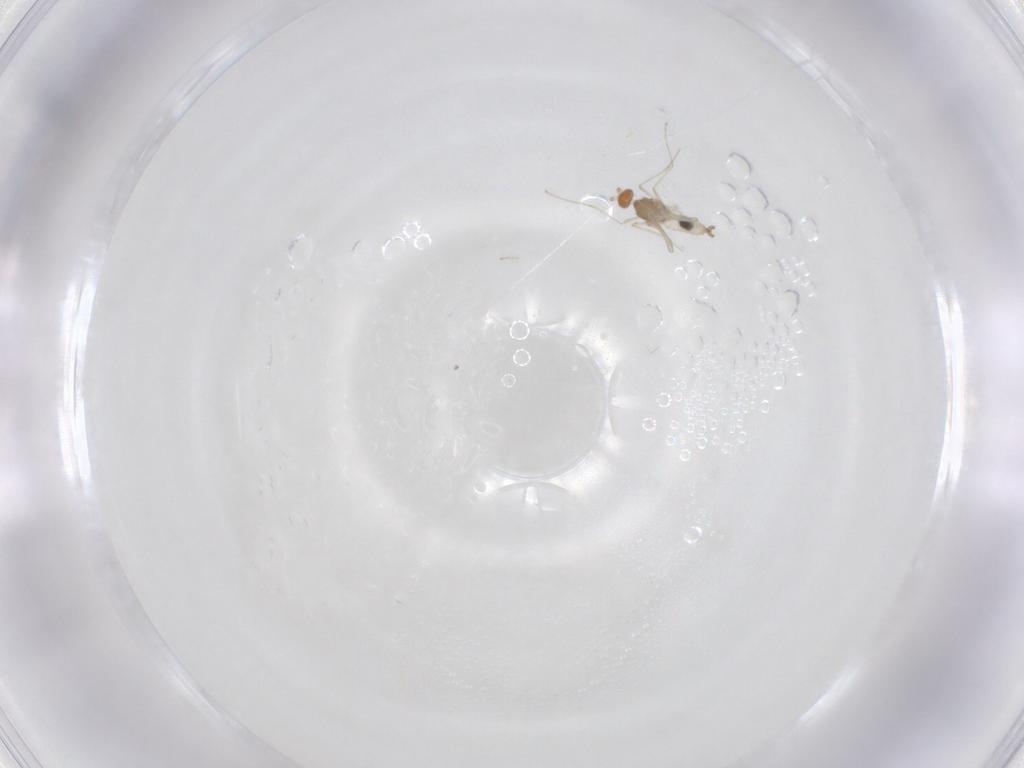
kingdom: Animalia
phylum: Arthropoda
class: Insecta
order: Diptera
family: Cecidomyiidae
